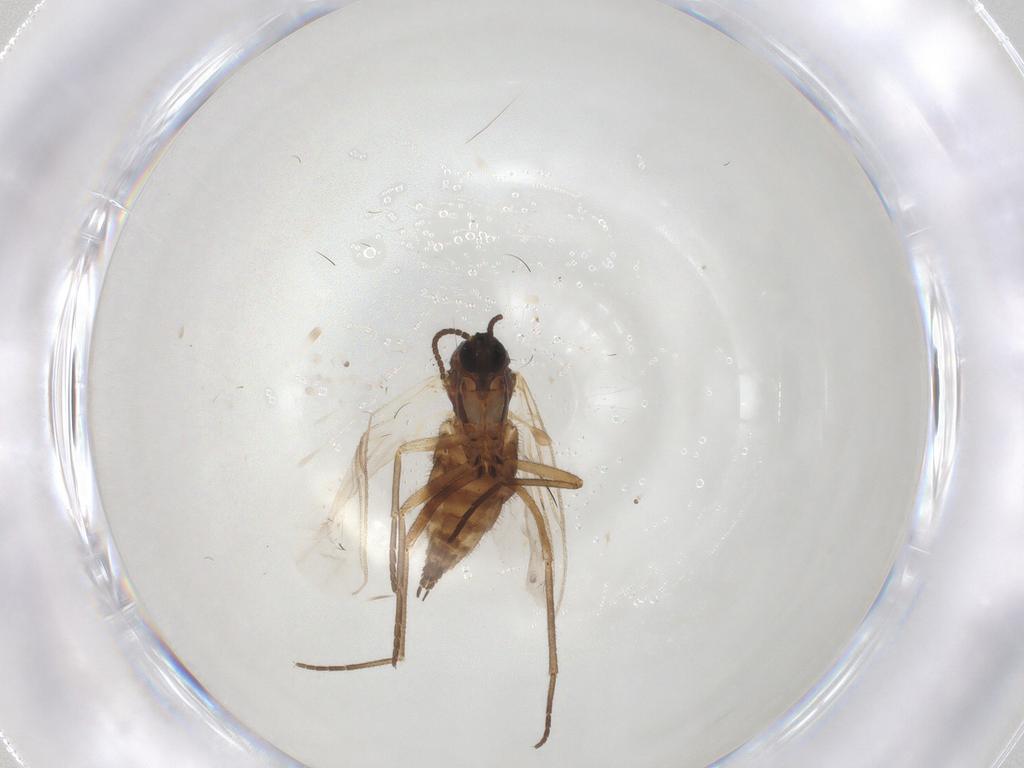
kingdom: Animalia
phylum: Arthropoda
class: Insecta
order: Diptera
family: Sciaridae
